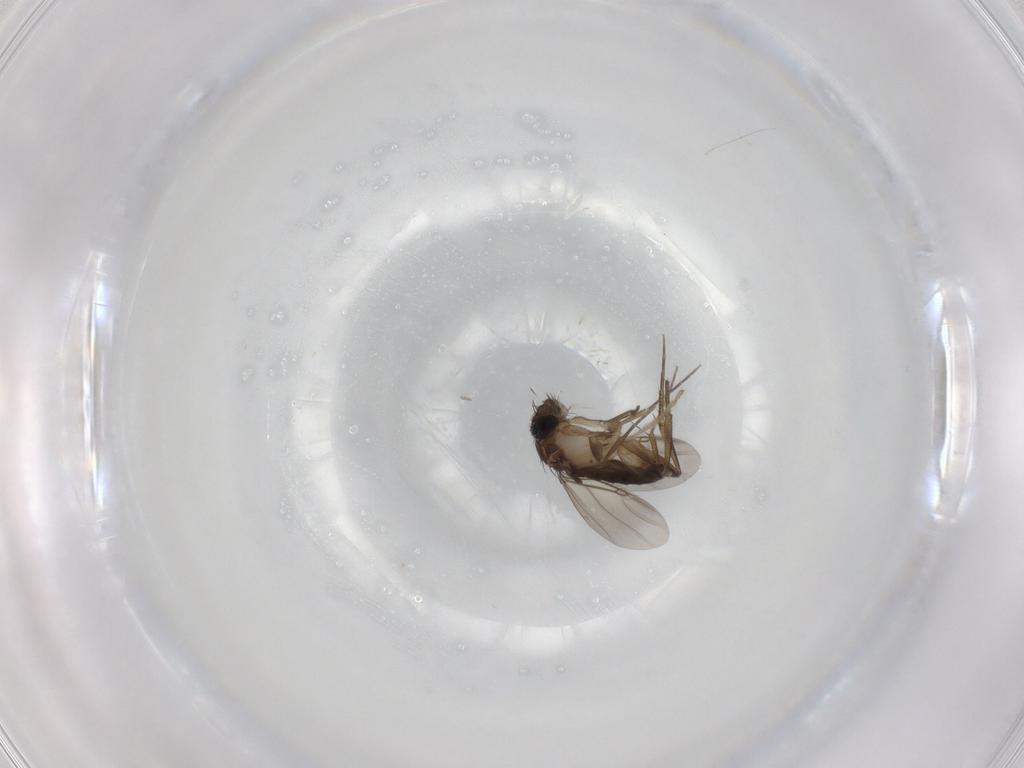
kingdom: Animalia
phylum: Arthropoda
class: Insecta
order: Diptera
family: Phoridae
